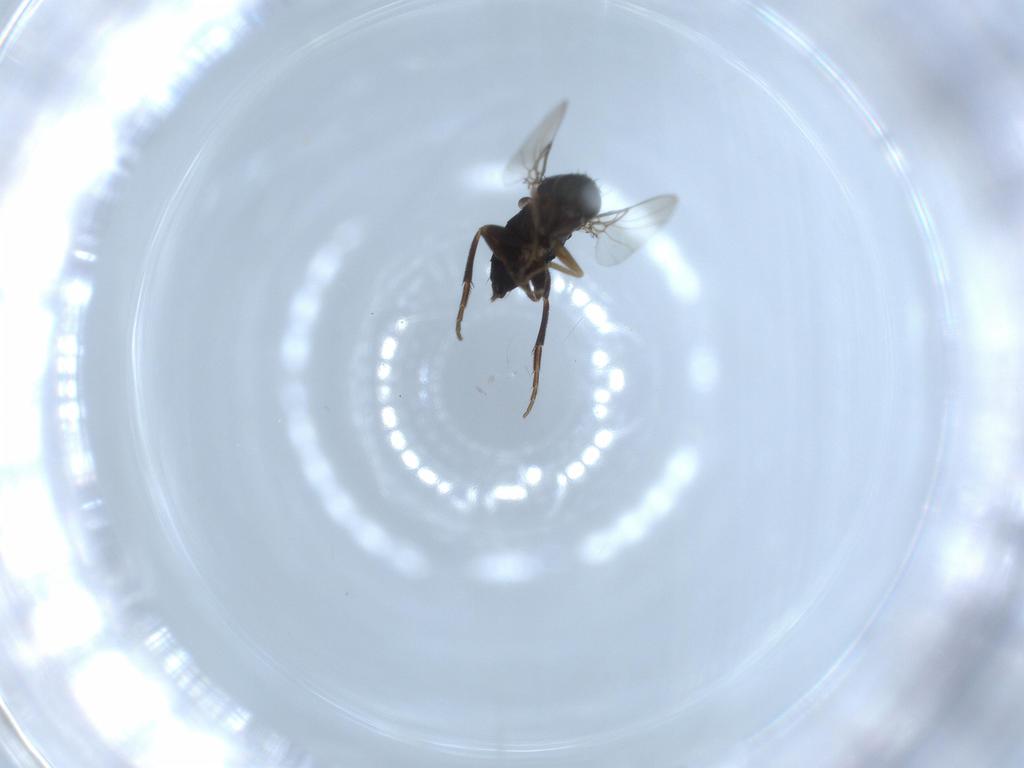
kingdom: Animalia
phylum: Arthropoda
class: Insecta
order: Diptera
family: Phoridae
